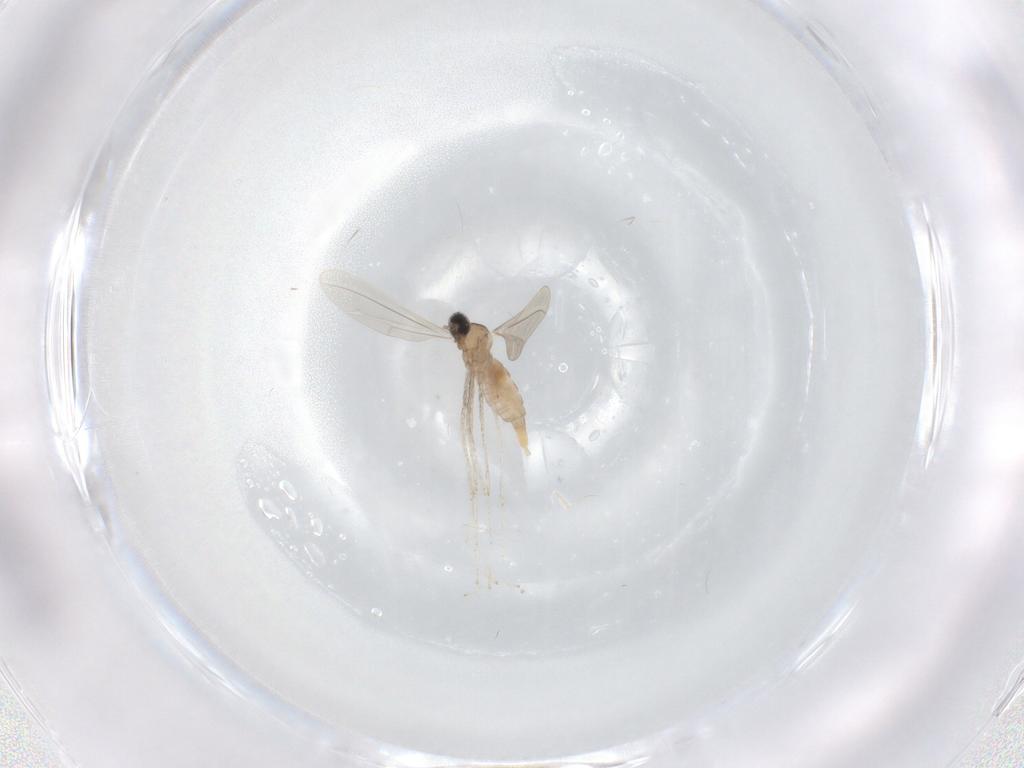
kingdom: Animalia
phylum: Arthropoda
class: Insecta
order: Diptera
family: Cecidomyiidae
